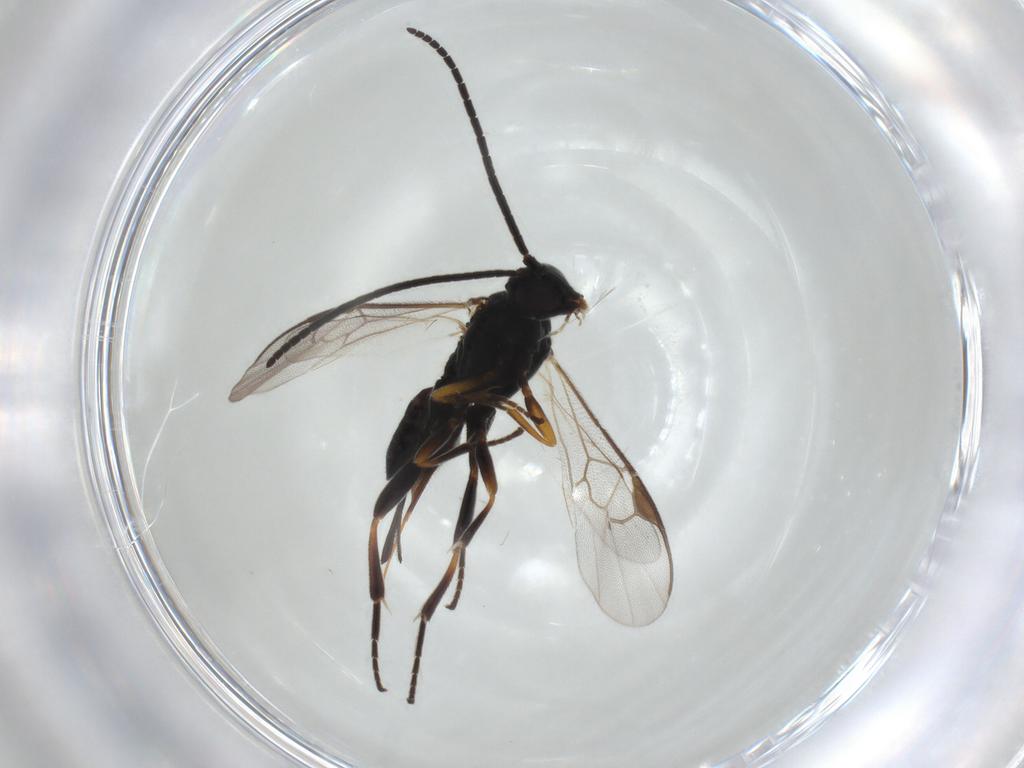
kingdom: Animalia
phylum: Arthropoda
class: Insecta
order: Hymenoptera
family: Braconidae
